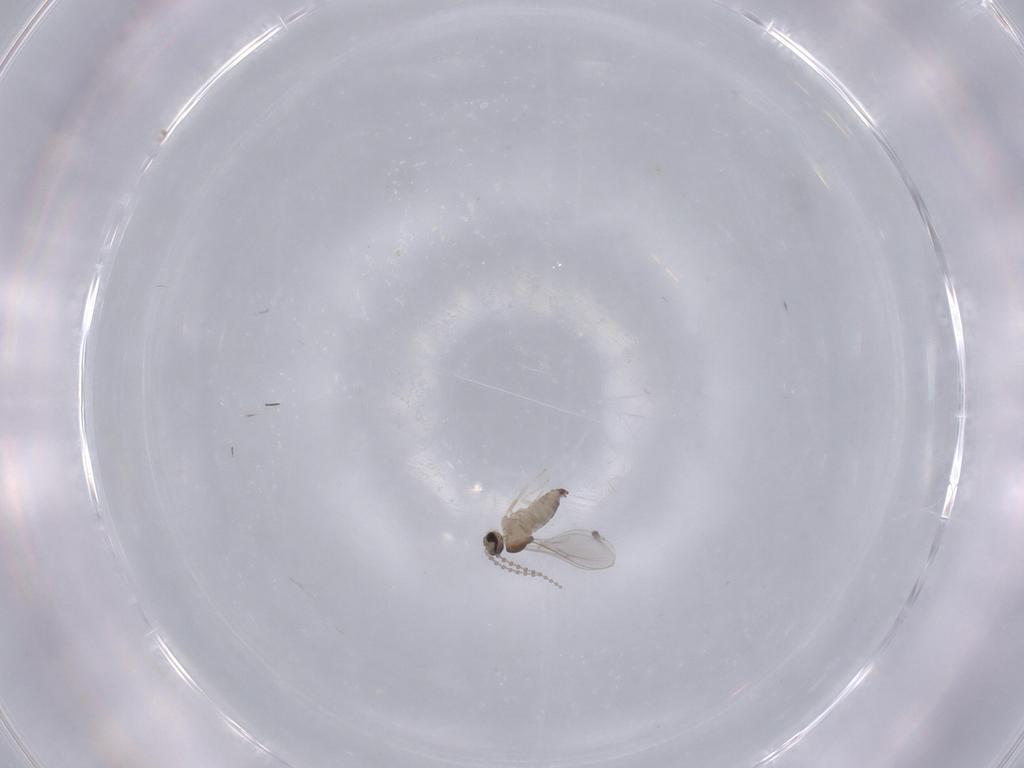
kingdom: Animalia
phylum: Arthropoda
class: Insecta
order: Diptera
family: Cecidomyiidae
